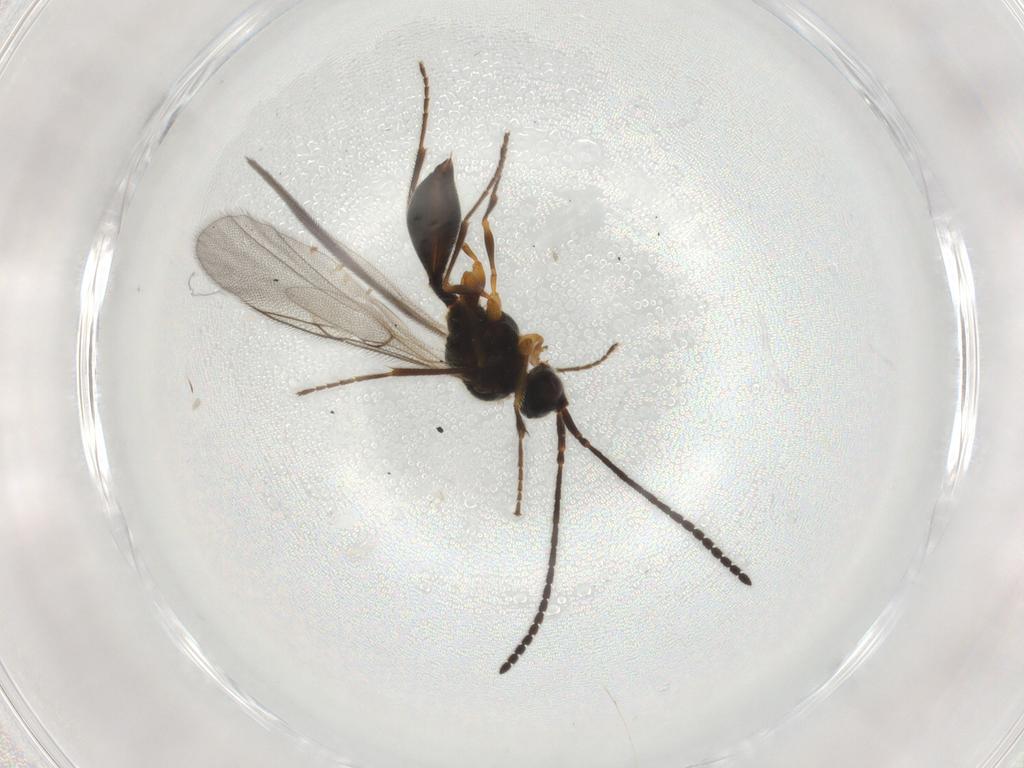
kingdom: Animalia
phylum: Arthropoda
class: Insecta
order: Hymenoptera
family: Diapriidae
